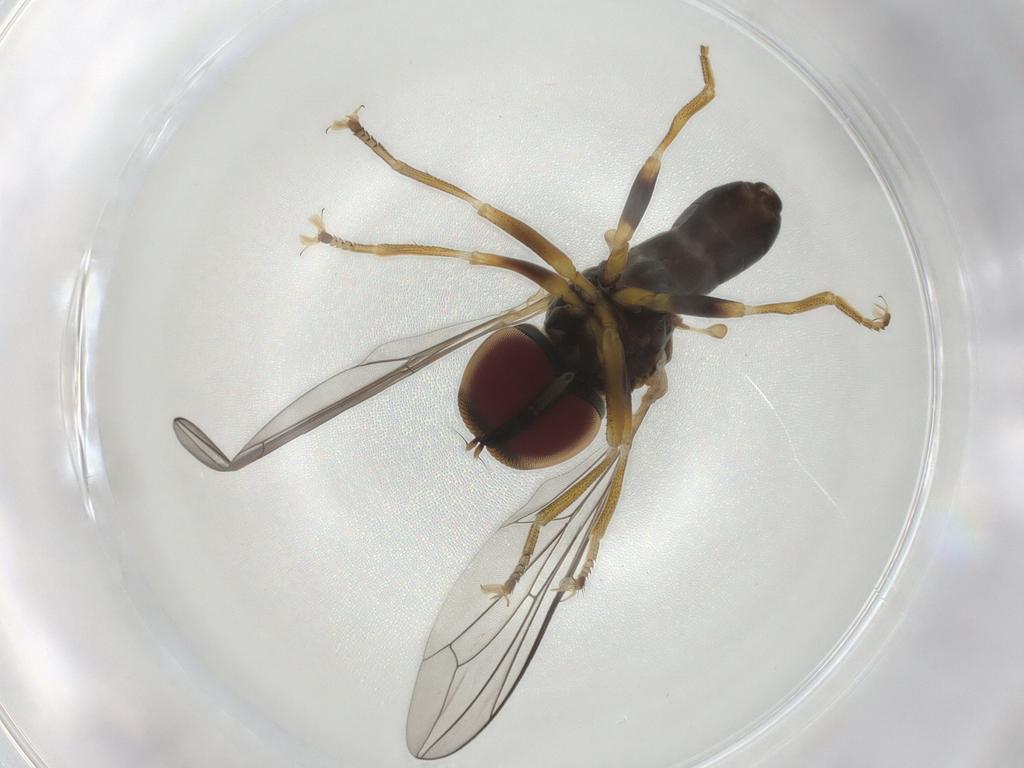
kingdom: Animalia
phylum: Arthropoda
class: Insecta
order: Diptera
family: Pipunculidae
